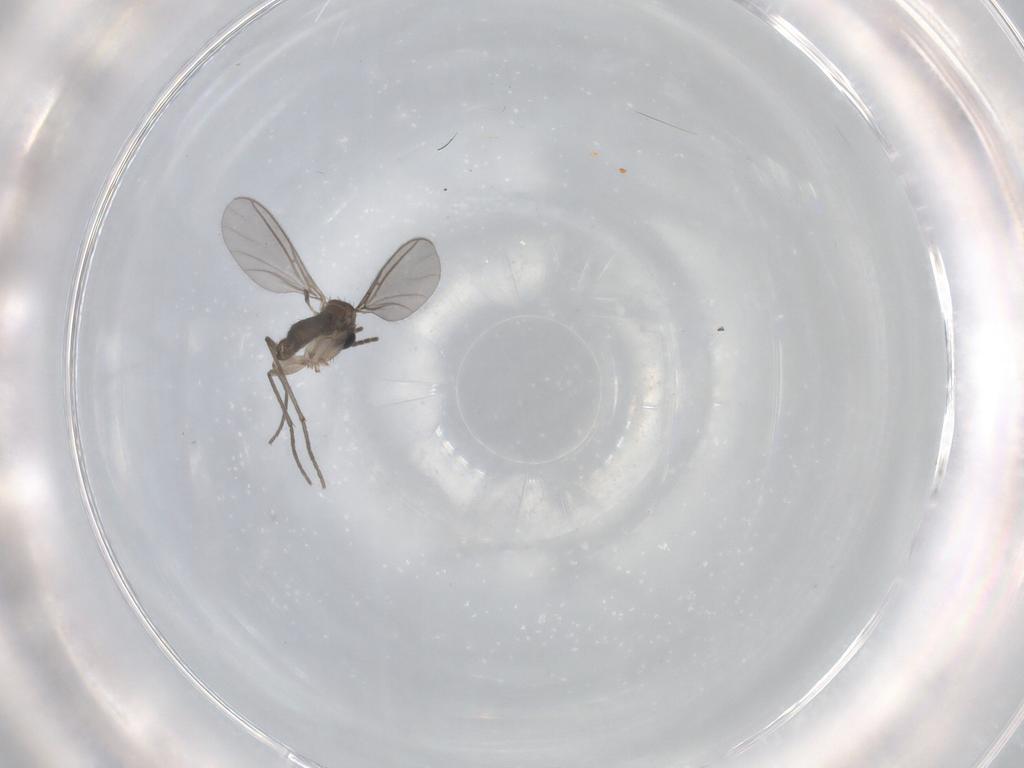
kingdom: Animalia
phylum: Arthropoda
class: Insecta
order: Diptera
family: Sciaridae
